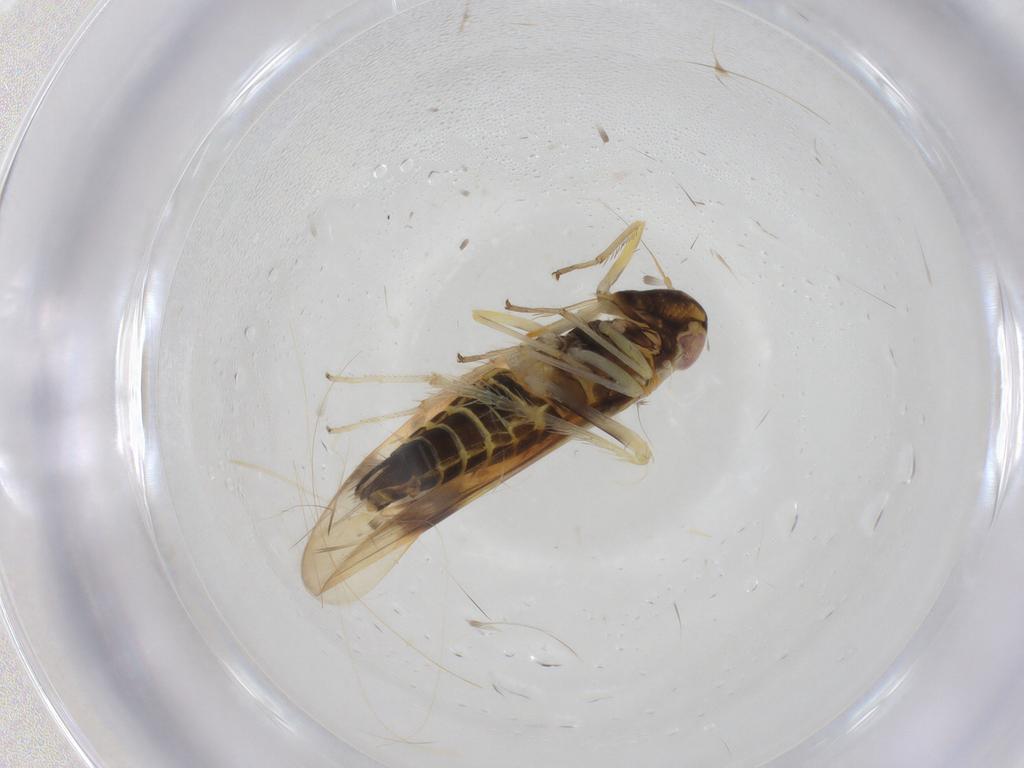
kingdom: Animalia
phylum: Arthropoda
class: Insecta
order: Hemiptera
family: Cicadellidae
